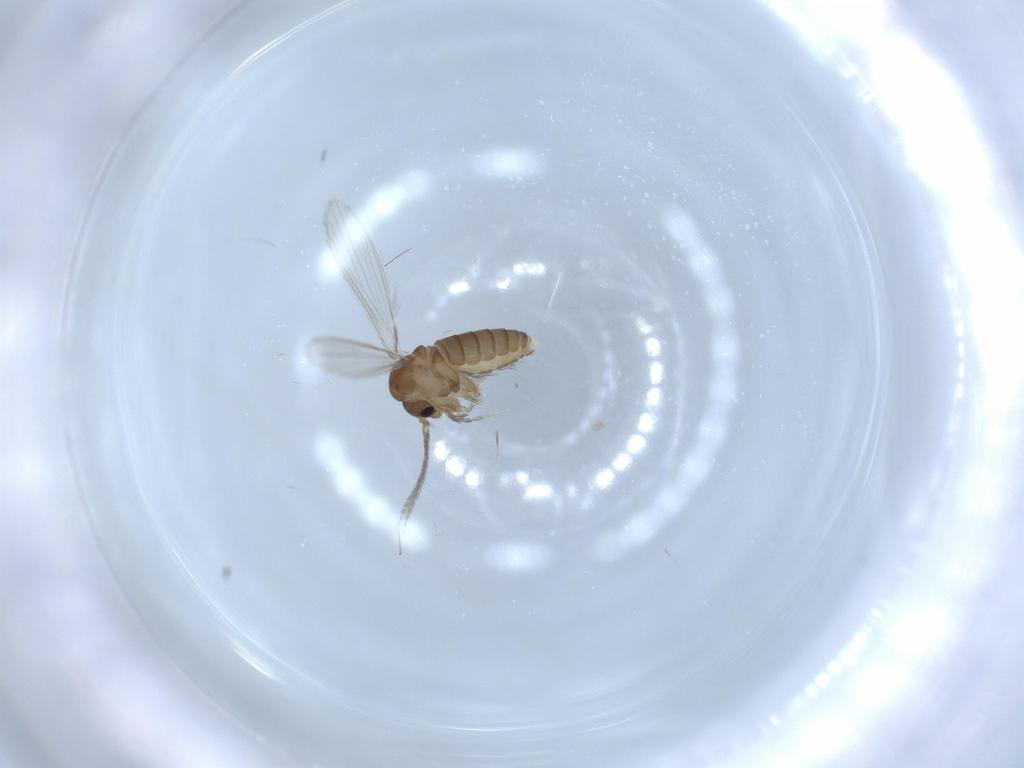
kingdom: Animalia
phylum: Arthropoda
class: Insecta
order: Diptera
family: Psychodidae
